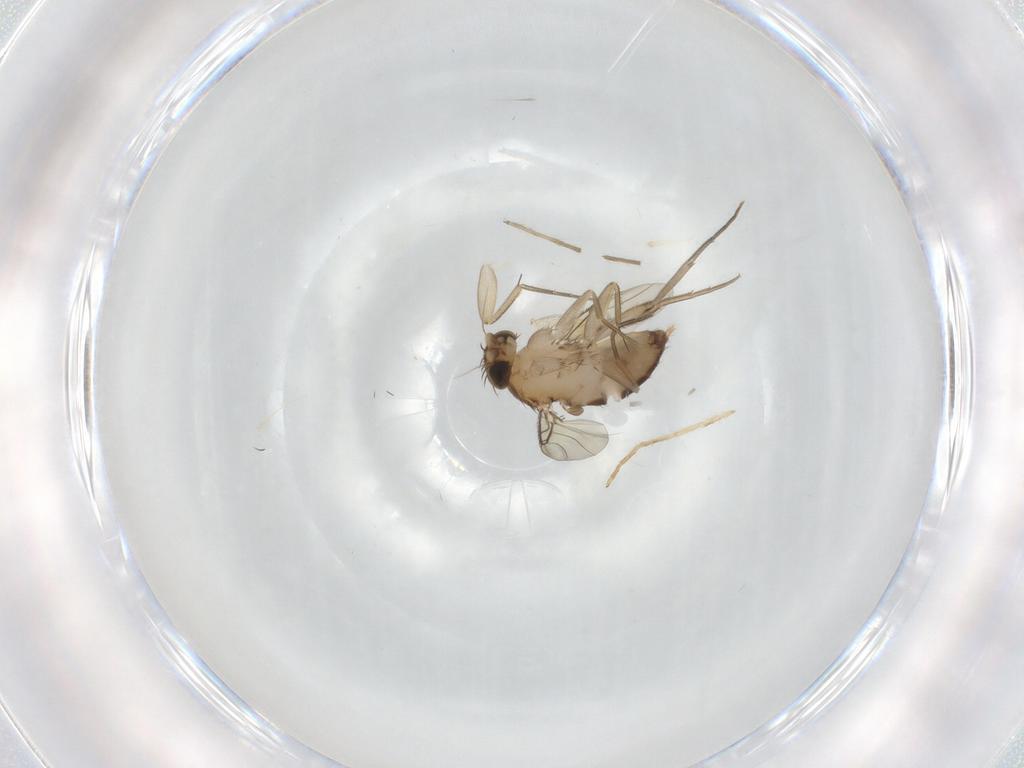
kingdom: Animalia
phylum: Arthropoda
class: Insecta
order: Diptera
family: Phoridae
